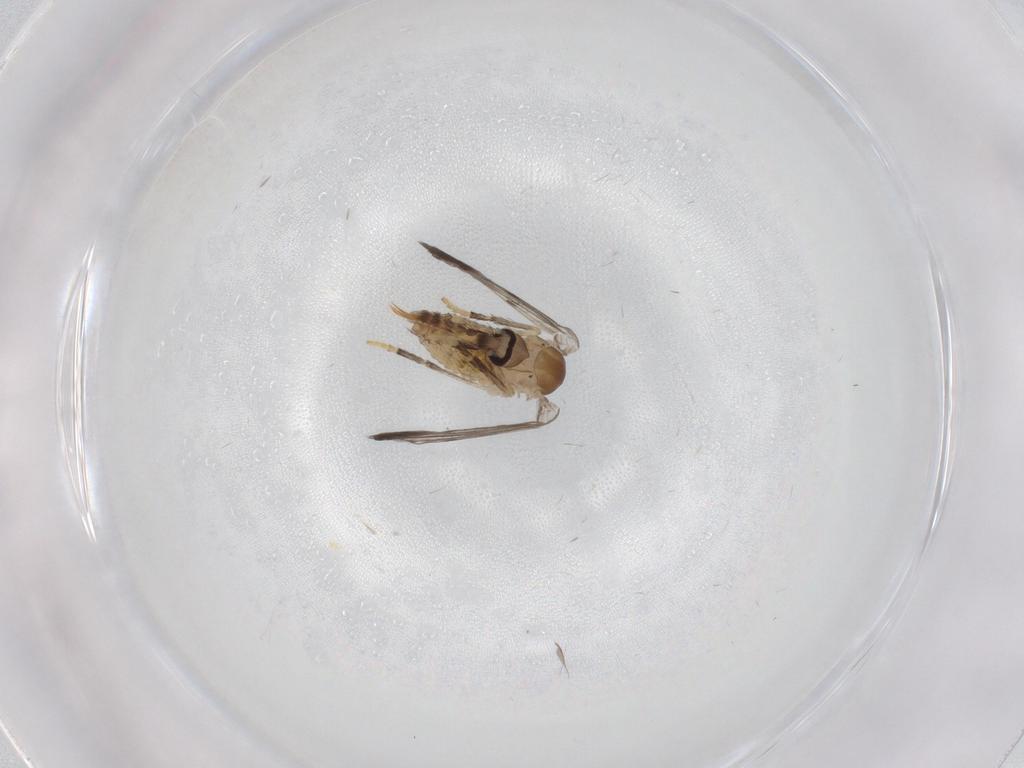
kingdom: Animalia
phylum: Arthropoda
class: Insecta
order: Diptera
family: Psychodidae
